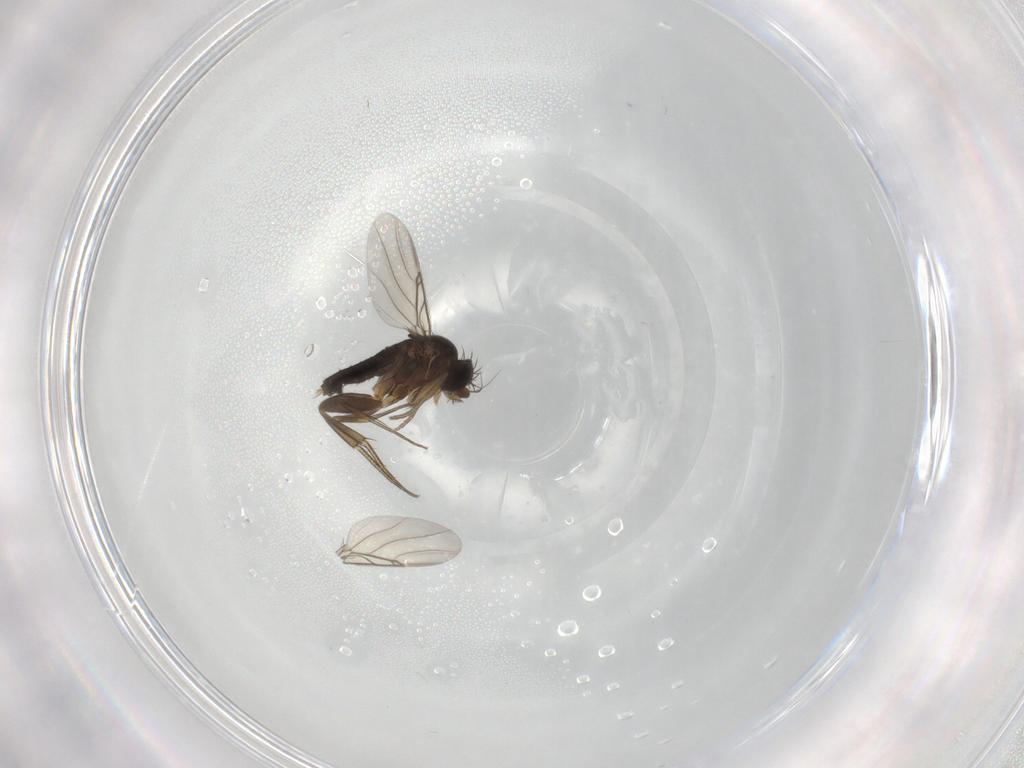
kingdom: Animalia
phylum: Arthropoda
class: Insecta
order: Diptera
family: Phoridae
